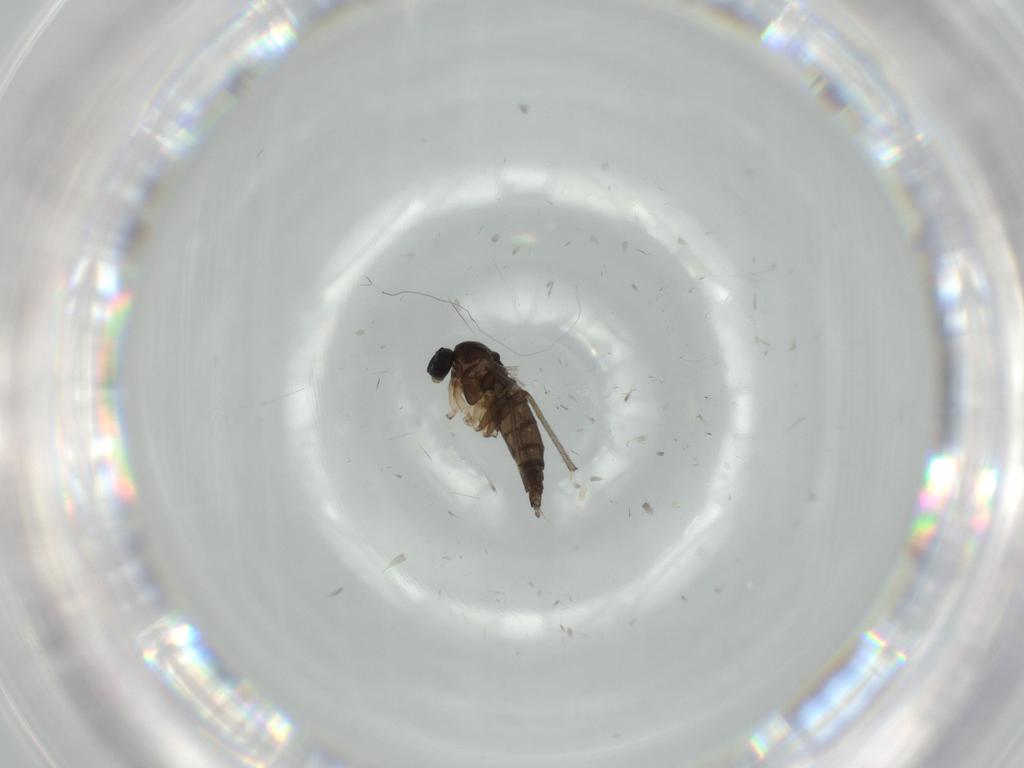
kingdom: Animalia
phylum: Arthropoda
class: Insecta
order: Diptera
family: Sciaridae
